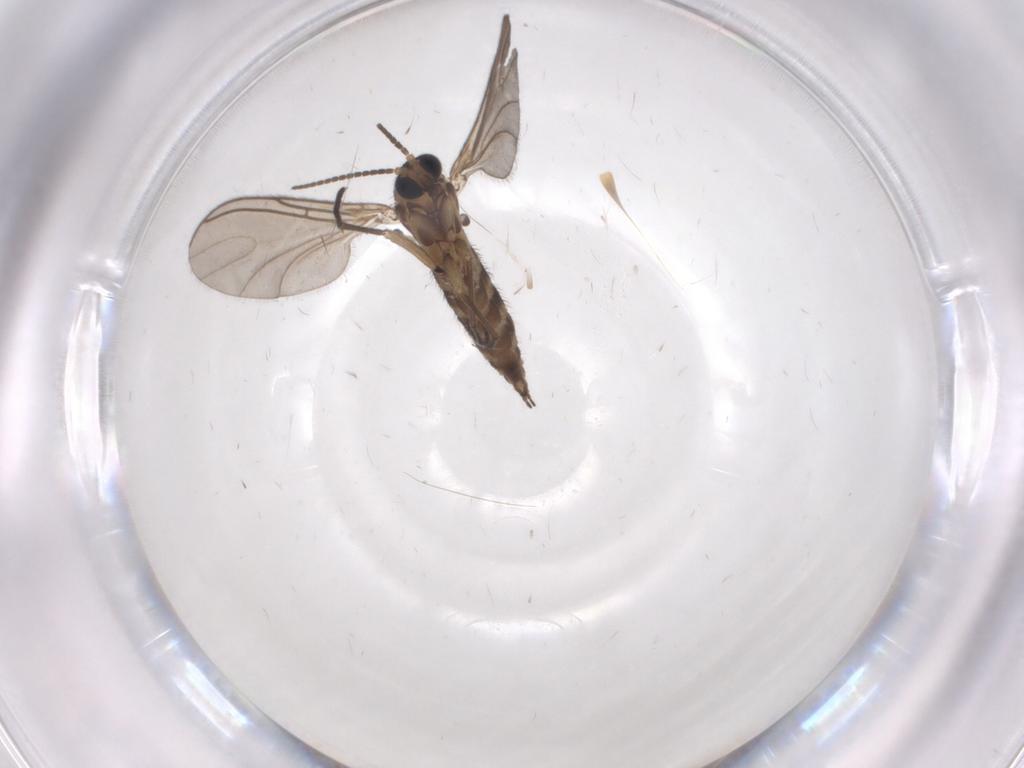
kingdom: Animalia
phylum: Arthropoda
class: Insecta
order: Diptera
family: Sciaridae
